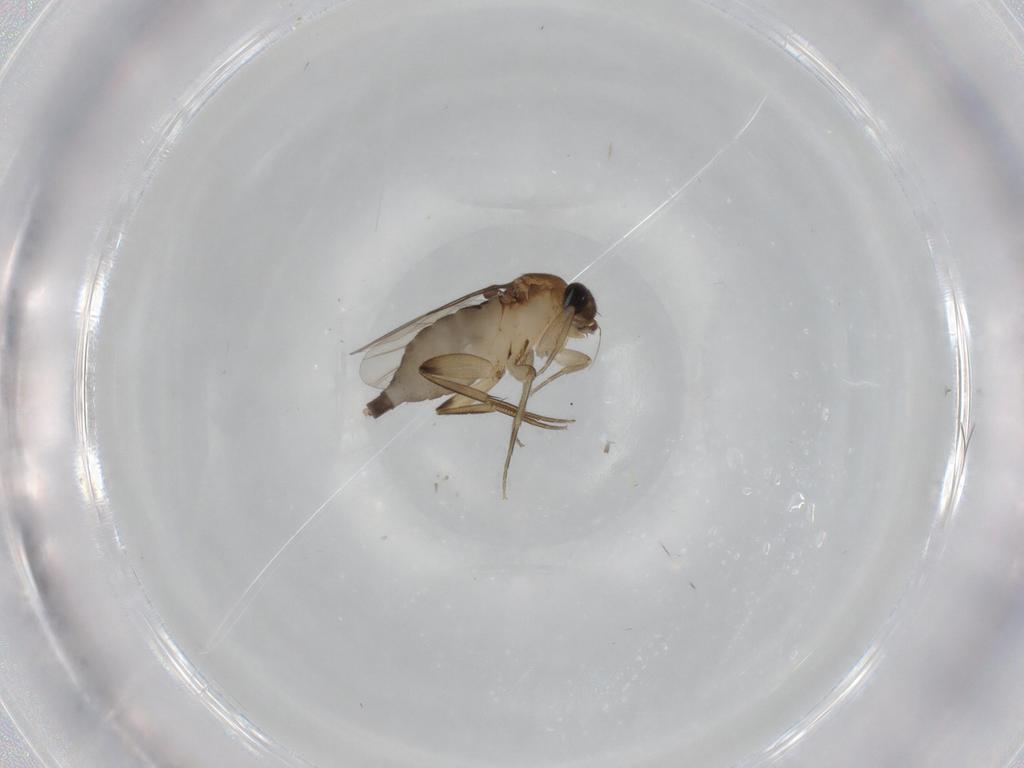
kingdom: Animalia
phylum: Arthropoda
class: Insecta
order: Diptera
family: Phoridae
